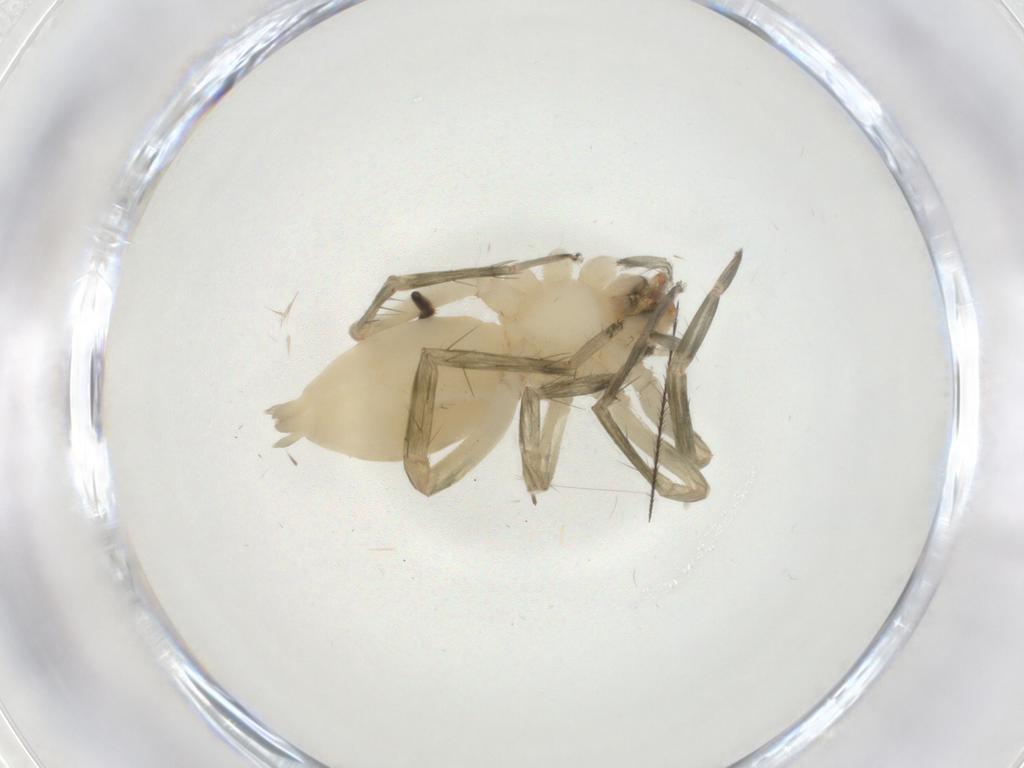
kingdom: Animalia
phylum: Arthropoda
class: Arachnida
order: Araneae
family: Anyphaenidae
